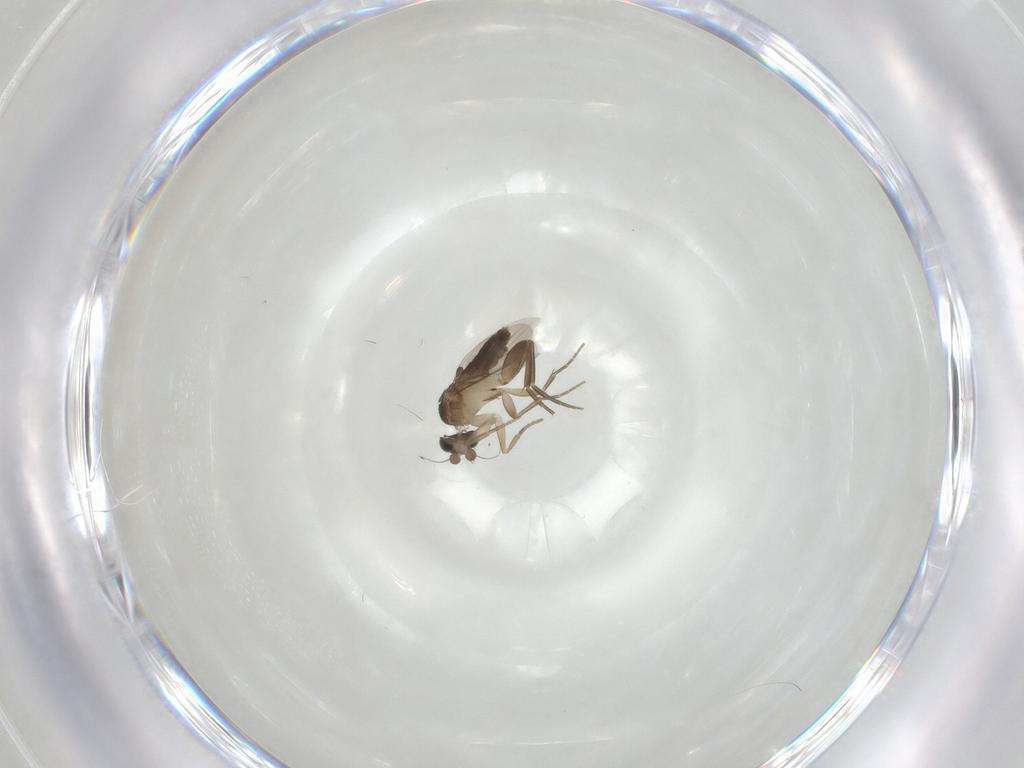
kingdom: Animalia
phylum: Arthropoda
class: Insecta
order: Diptera
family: Phoridae
